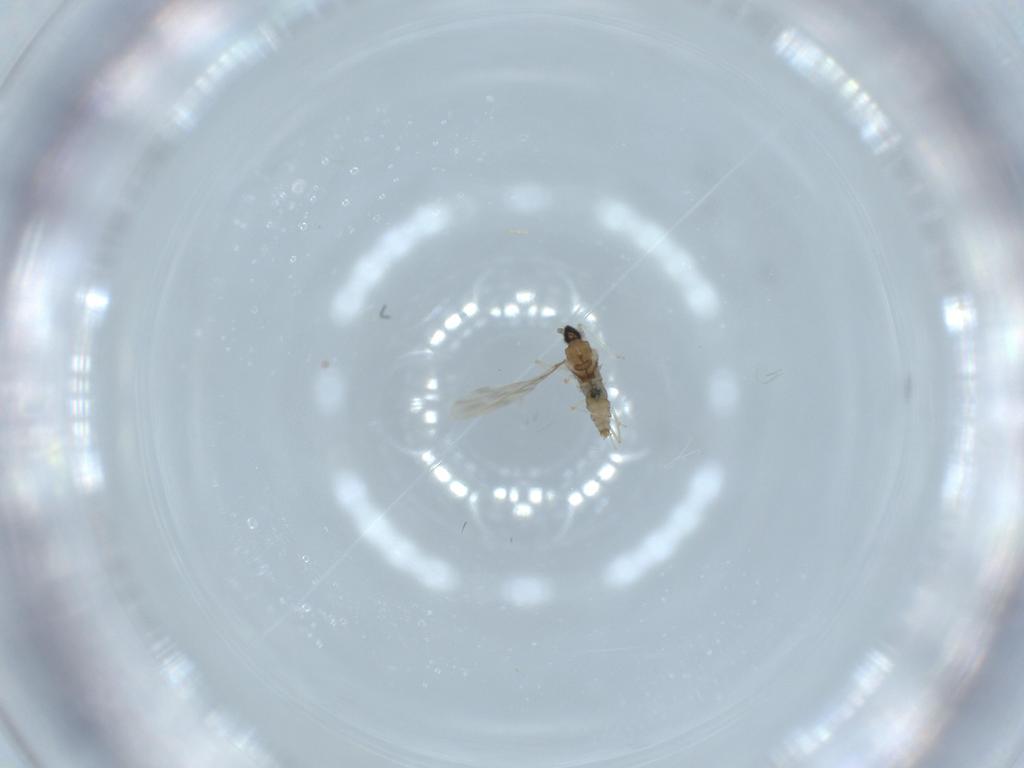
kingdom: Animalia
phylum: Arthropoda
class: Insecta
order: Diptera
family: Cecidomyiidae
